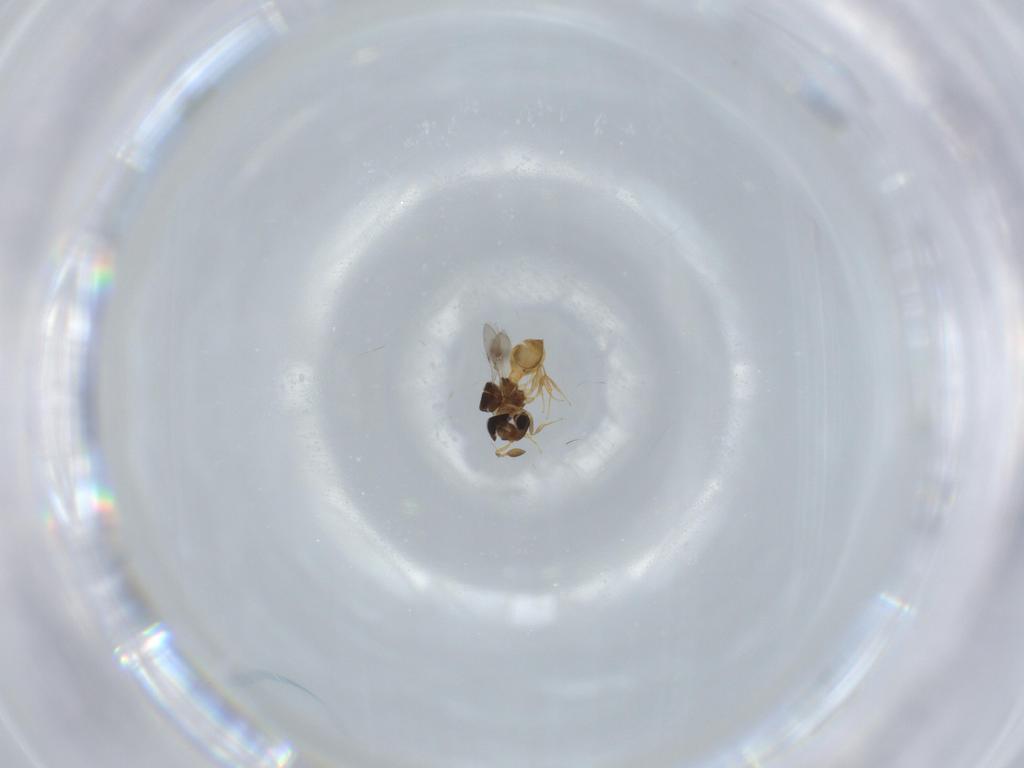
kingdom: Animalia
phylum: Arthropoda
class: Insecta
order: Hymenoptera
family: Scelionidae
